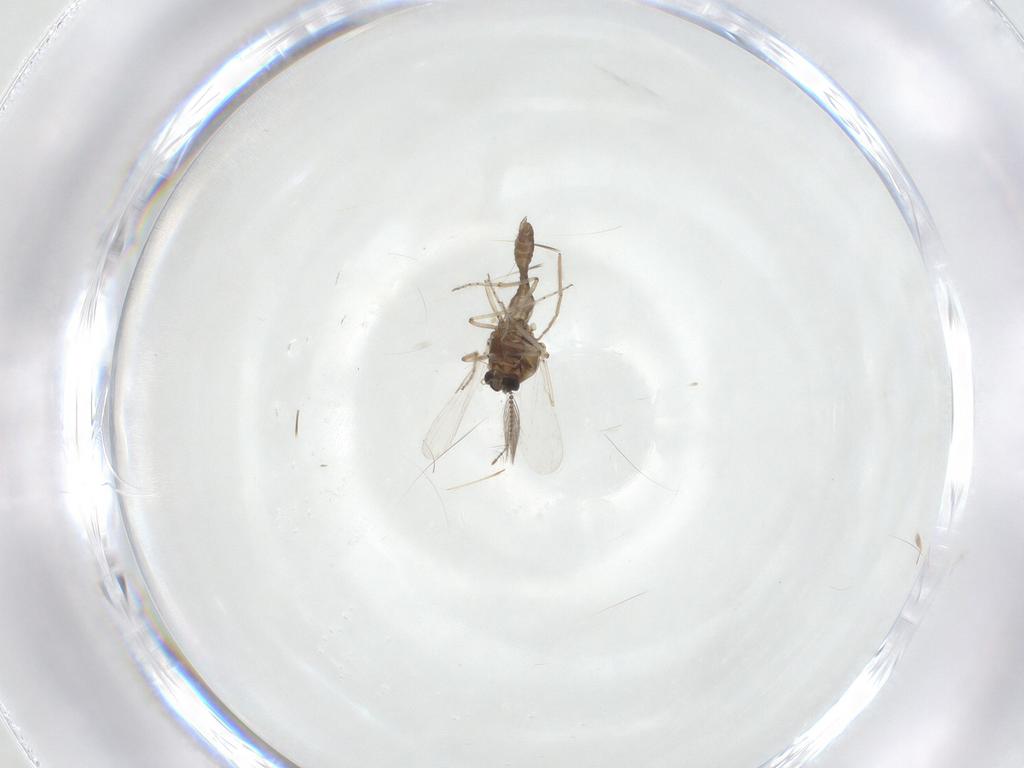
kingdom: Animalia
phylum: Arthropoda
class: Insecta
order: Diptera
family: Ceratopogonidae
